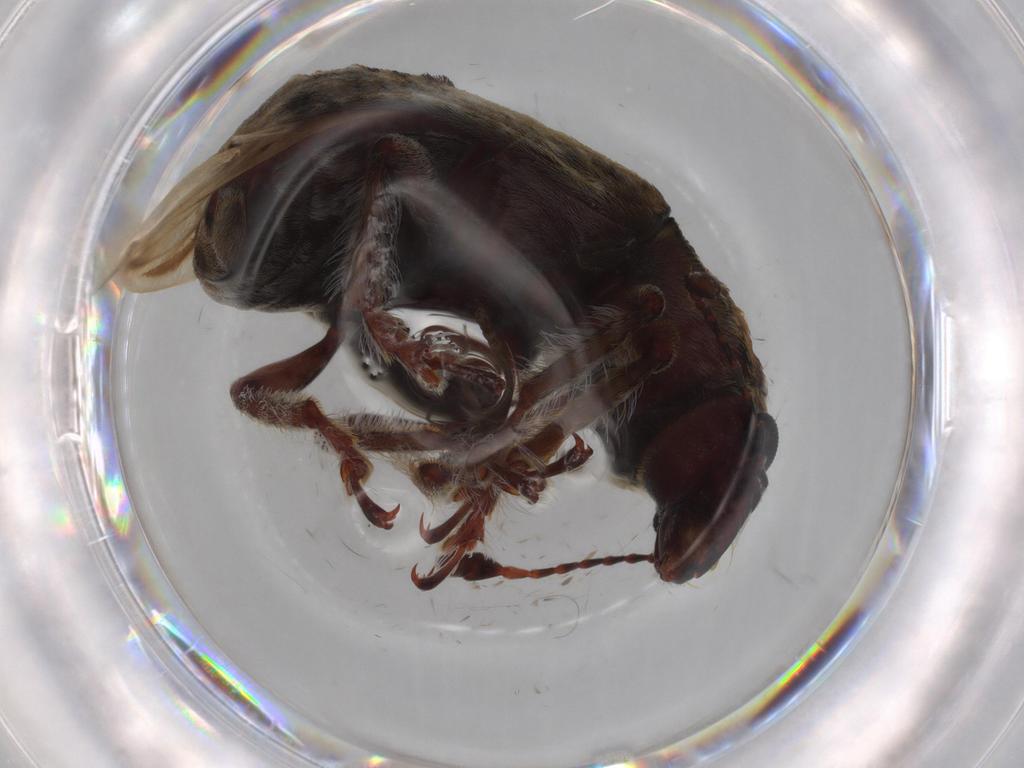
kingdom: Animalia
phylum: Arthropoda
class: Insecta
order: Coleoptera
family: Anthribidae
